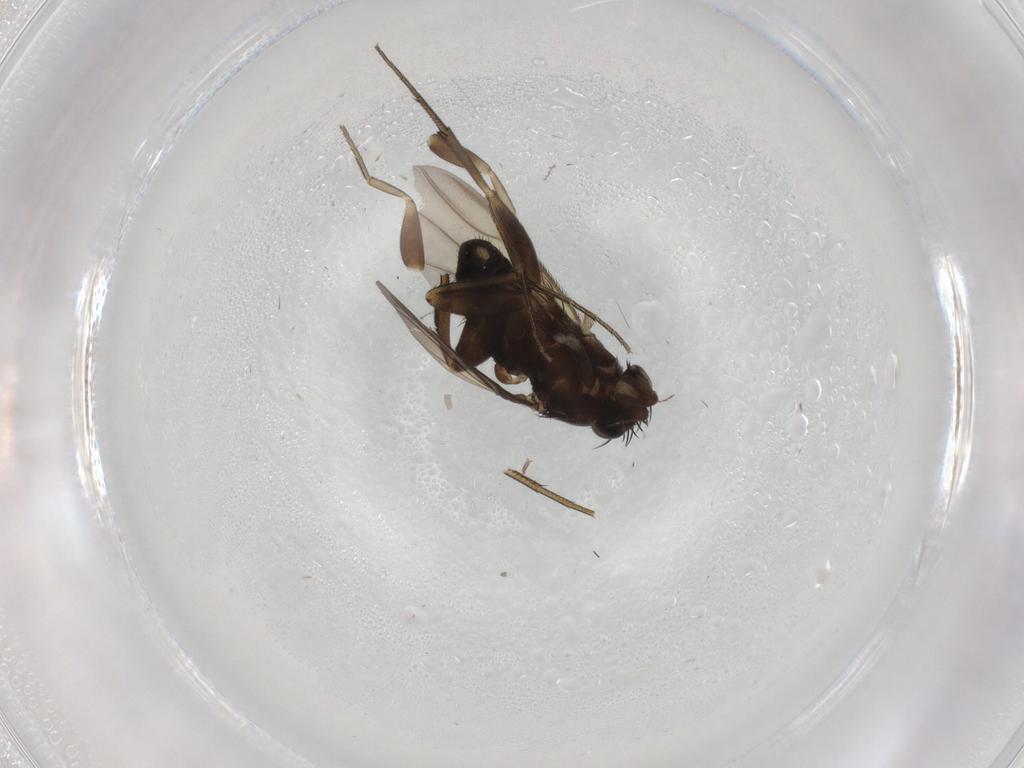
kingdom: Animalia
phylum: Arthropoda
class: Insecta
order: Diptera
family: Phoridae
